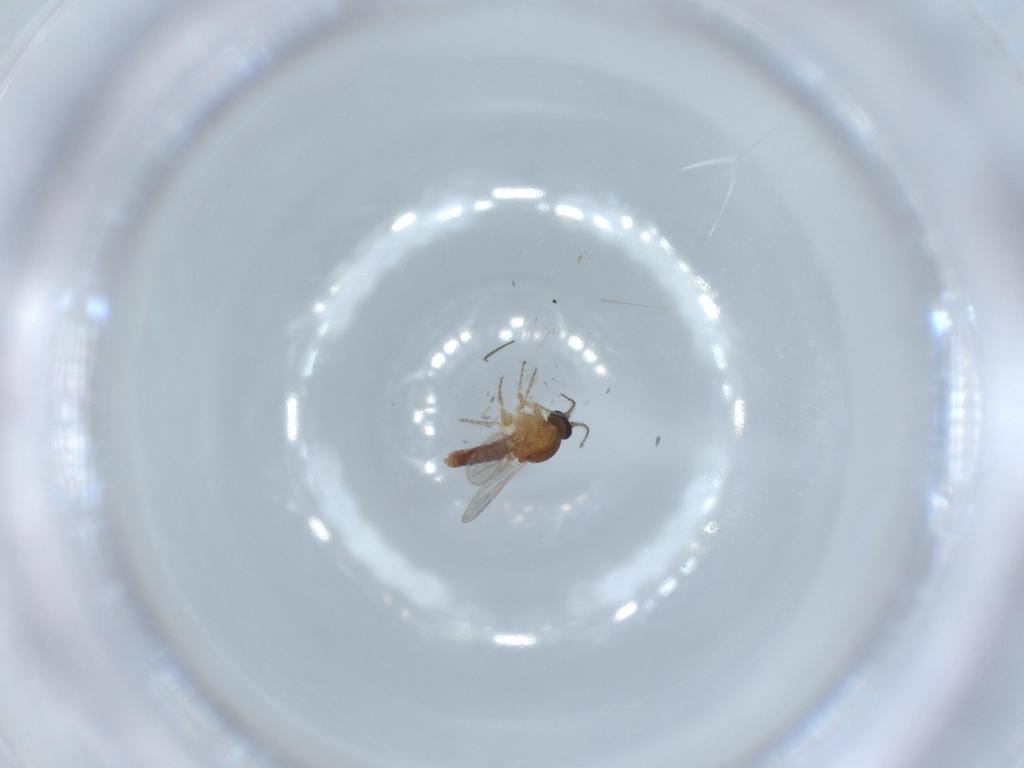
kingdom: Animalia
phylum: Arthropoda
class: Insecta
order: Diptera
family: Ceratopogonidae
